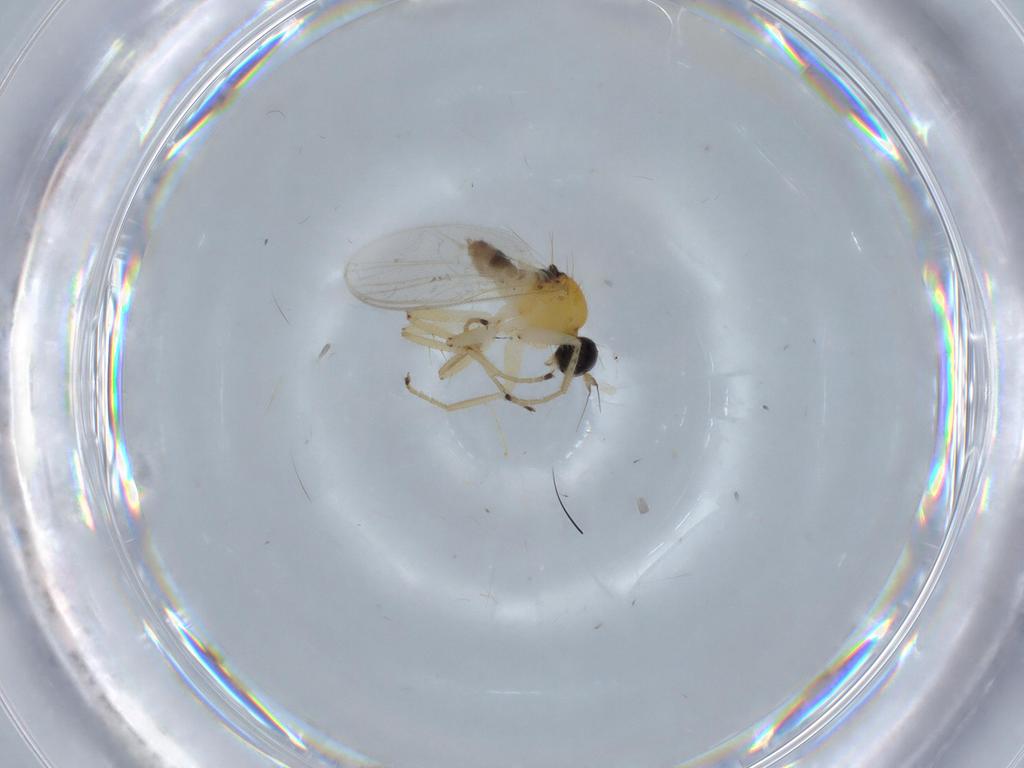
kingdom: Animalia
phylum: Arthropoda
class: Insecta
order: Diptera
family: Hybotidae
